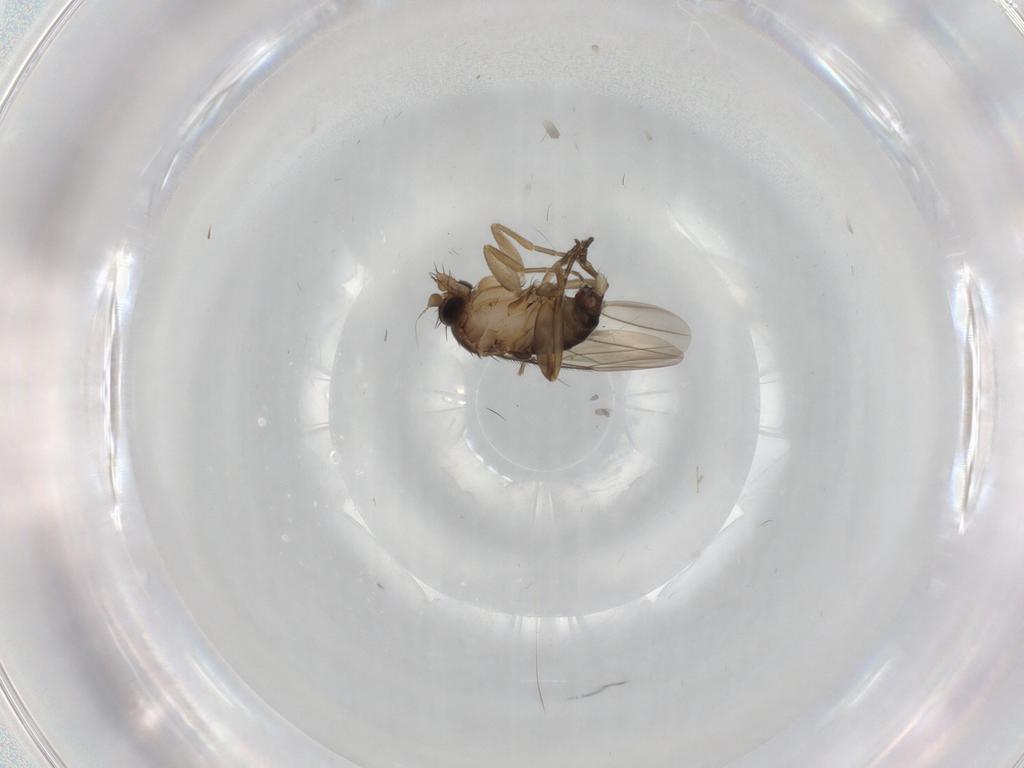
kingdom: Animalia
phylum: Arthropoda
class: Insecta
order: Diptera
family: Phoridae
